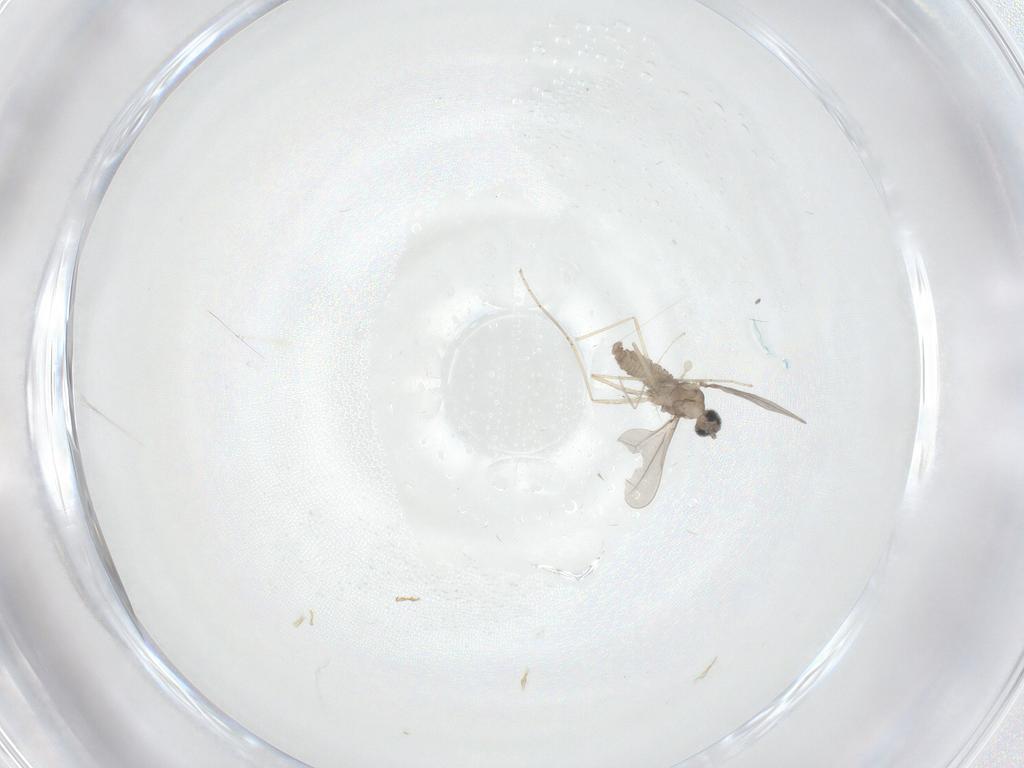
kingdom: Animalia
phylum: Arthropoda
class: Insecta
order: Diptera
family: Cecidomyiidae
